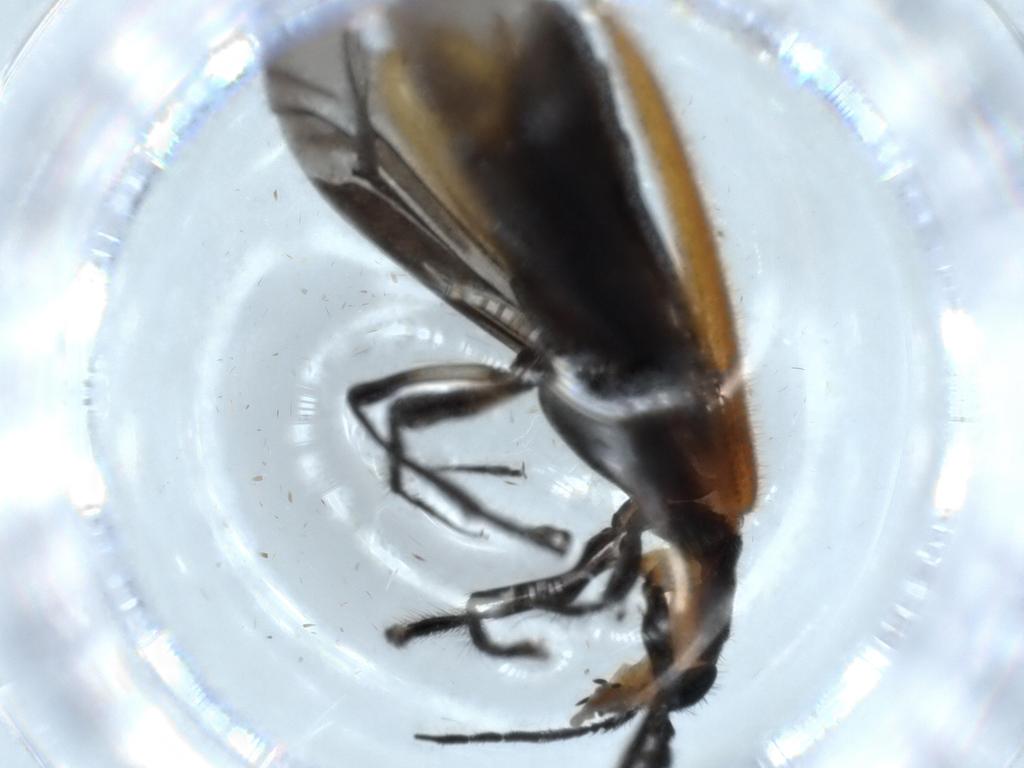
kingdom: Animalia
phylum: Arthropoda
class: Insecta
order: Coleoptera
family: Cleridae
